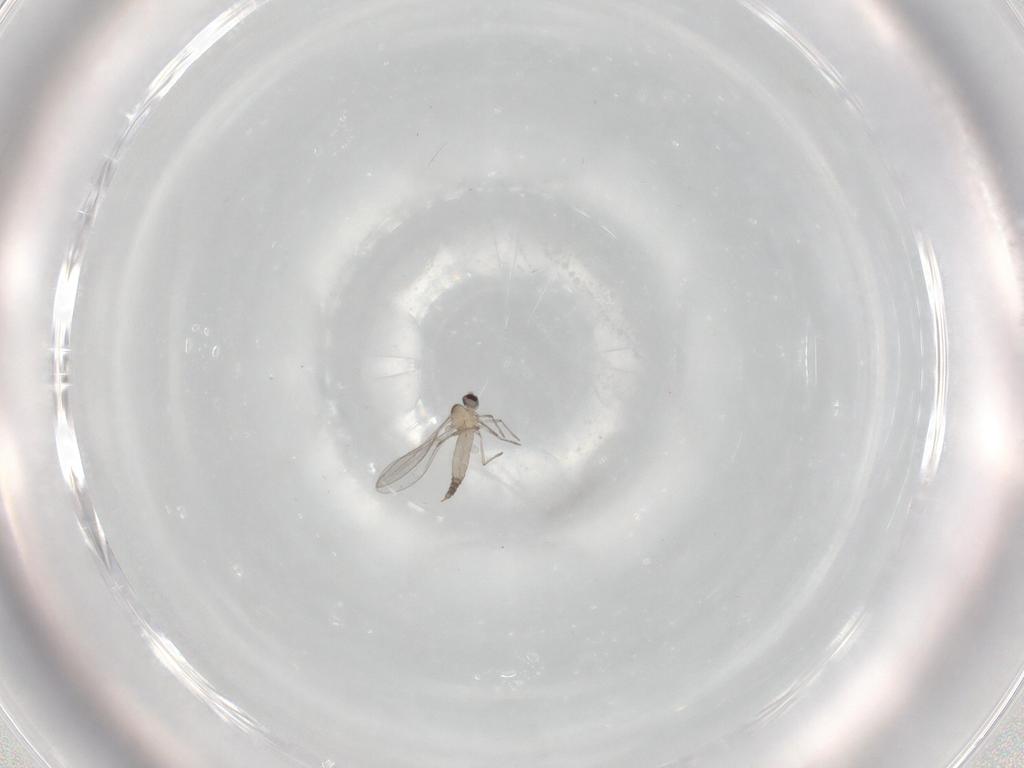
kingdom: Animalia
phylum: Arthropoda
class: Insecta
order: Diptera
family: Cecidomyiidae
